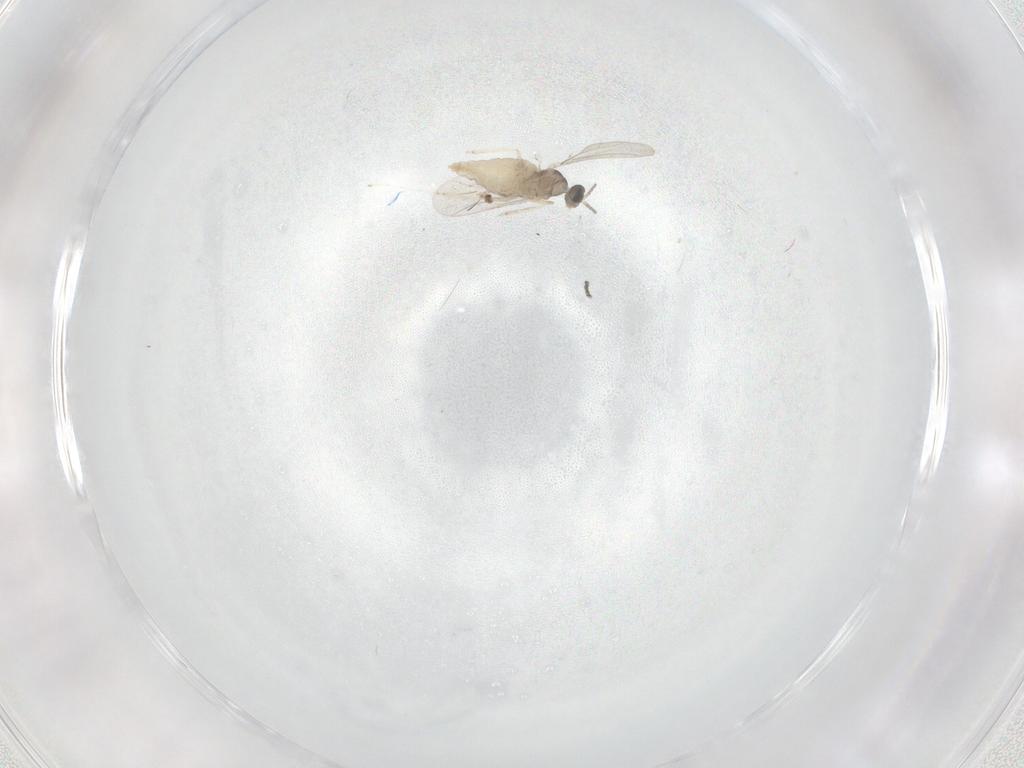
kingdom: Animalia
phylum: Arthropoda
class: Insecta
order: Diptera
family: Cecidomyiidae
